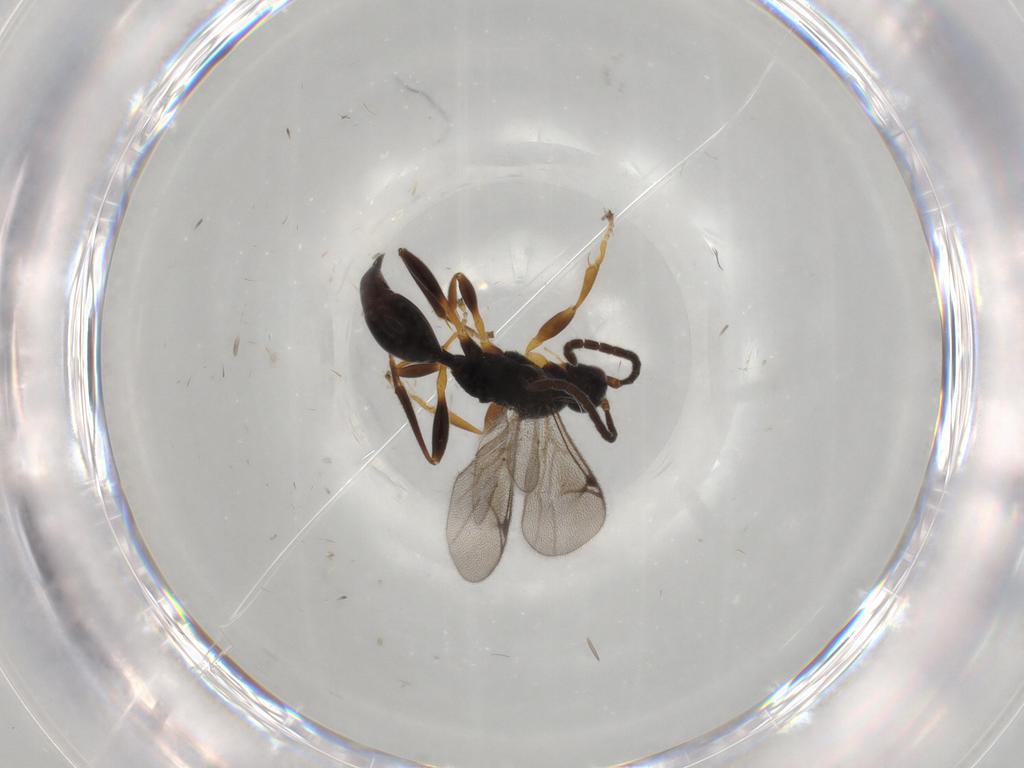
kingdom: Animalia
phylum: Arthropoda
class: Insecta
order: Hymenoptera
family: Proctotrupidae
